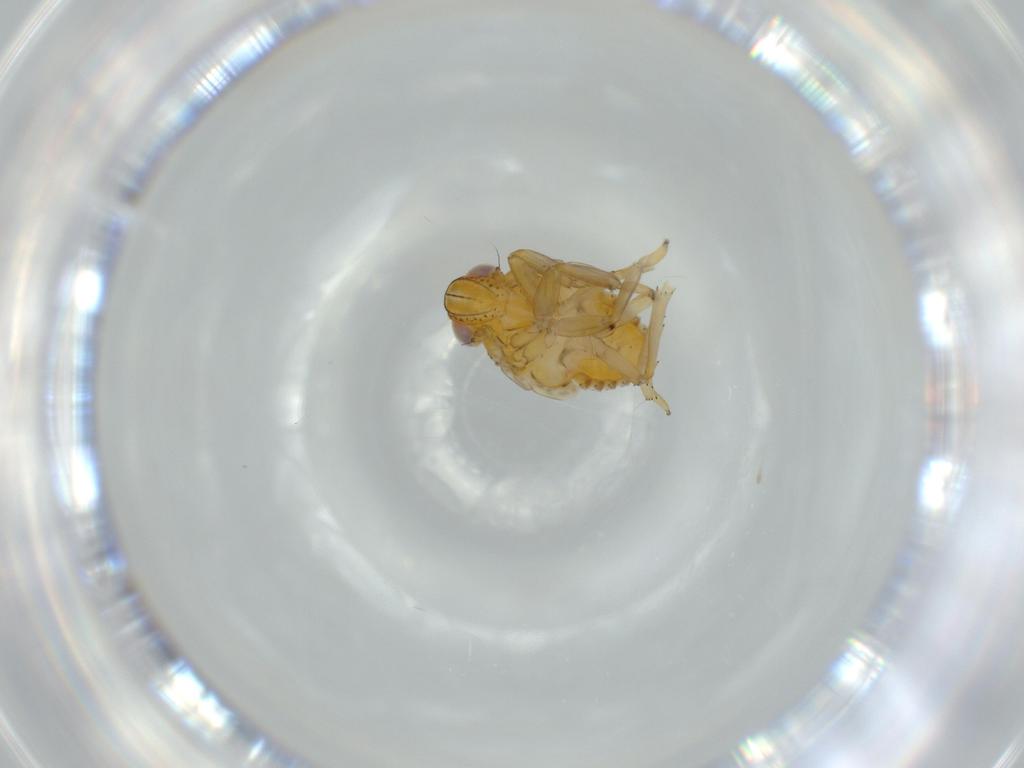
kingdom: Animalia
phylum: Arthropoda
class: Insecta
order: Hemiptera
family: Issidae
